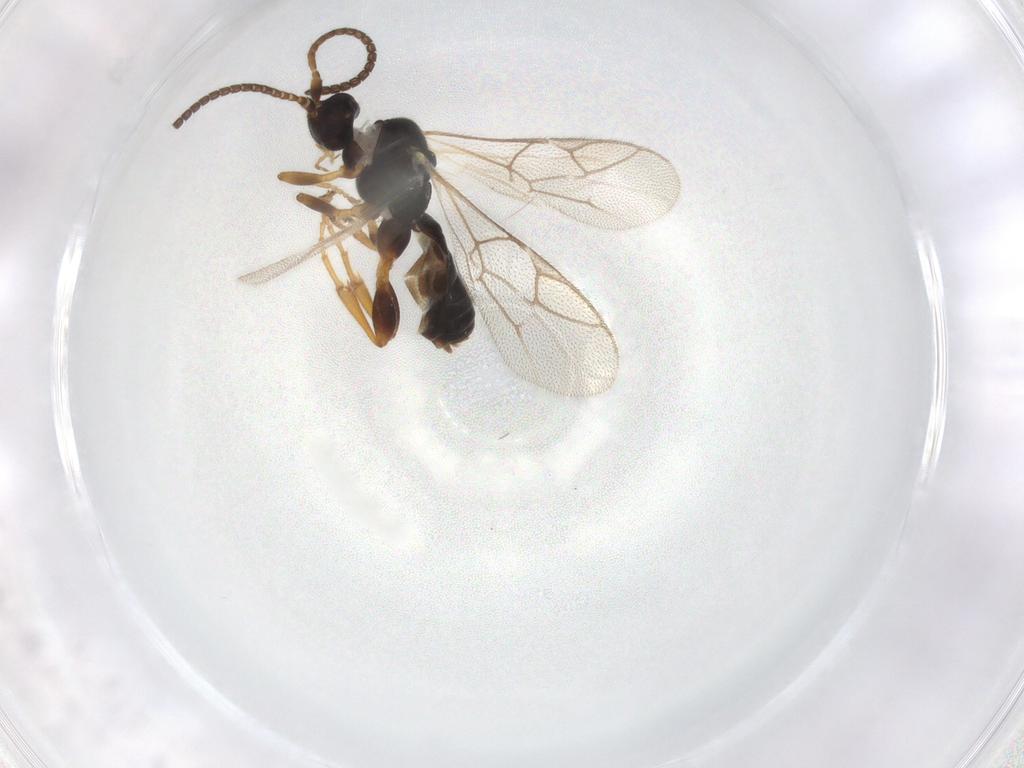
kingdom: Animalia
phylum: Arthropoda
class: Insecta
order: Hymenoptera
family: Ichneumonidae
